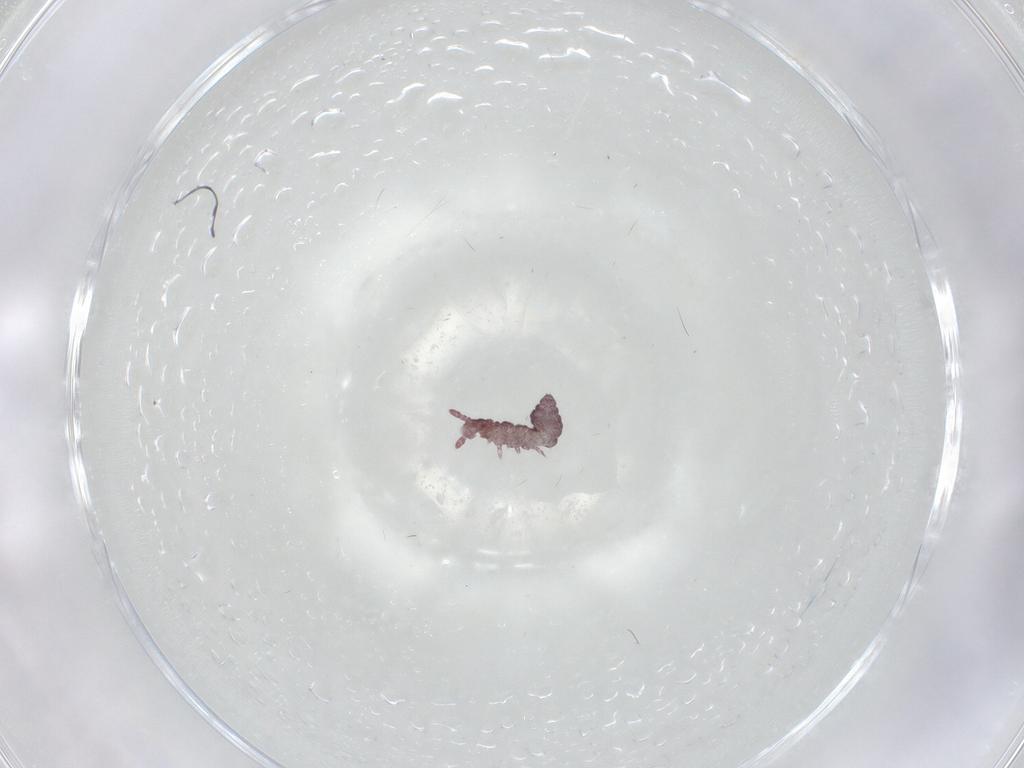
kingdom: Animalia
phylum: Arthropoda
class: Collembola
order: Poduromorpha
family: Hypogastruridae
